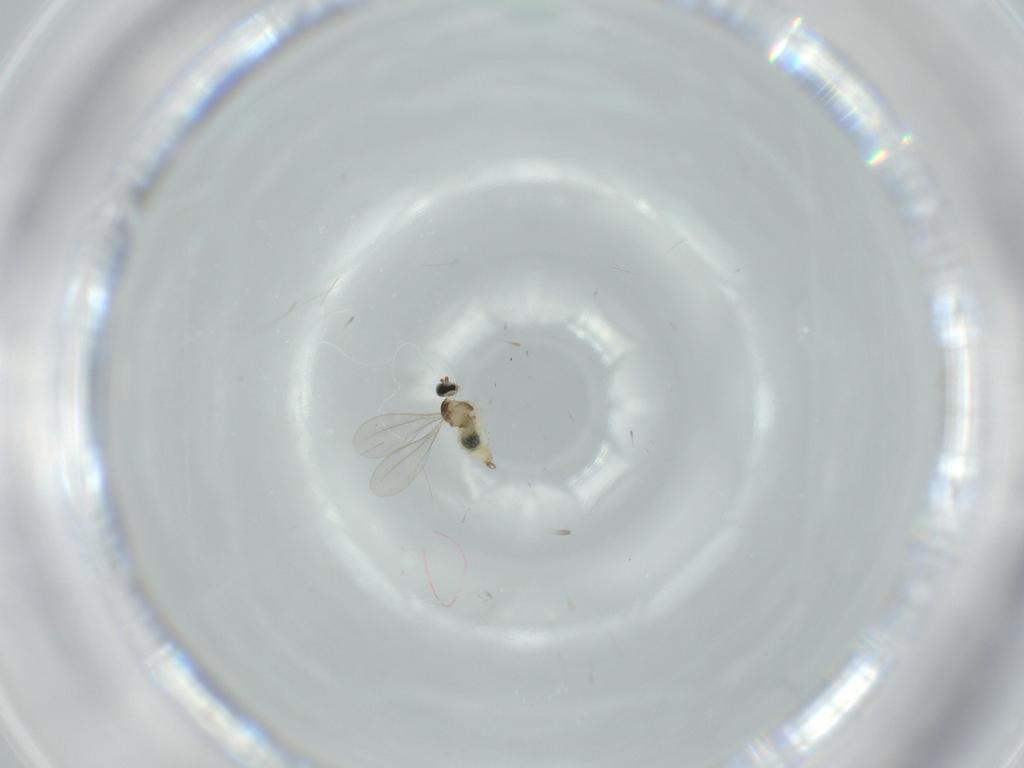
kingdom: Animalia
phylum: Arthropoda
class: Insecta
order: Diptera
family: Cecidomyiidae
